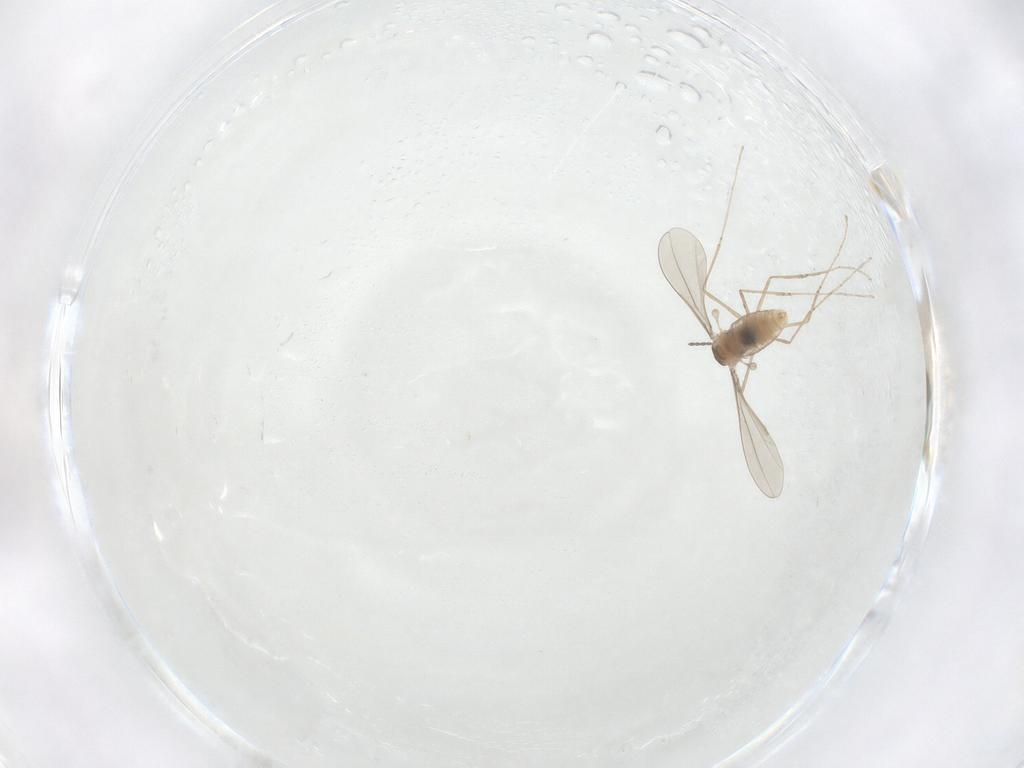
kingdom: Animalia
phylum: Arthropoda
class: Insecta
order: Diptera
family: Cecidomyiidae
